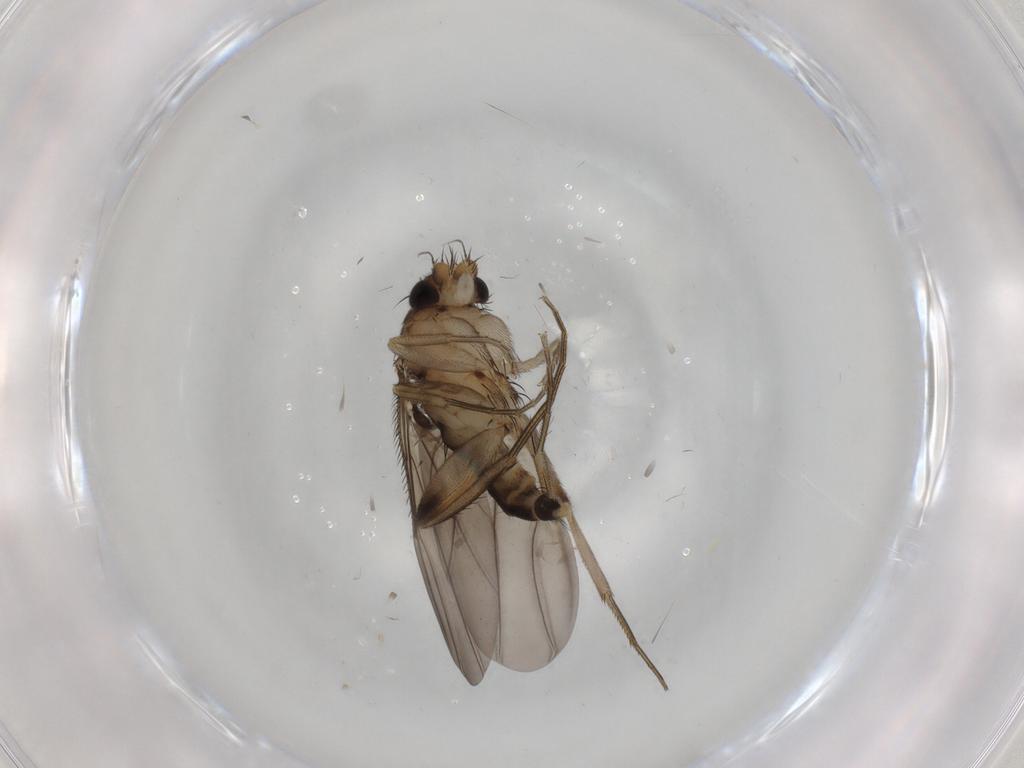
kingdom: Animalia
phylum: Arthropoda
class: Insecta
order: Diptera
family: Phoridae
